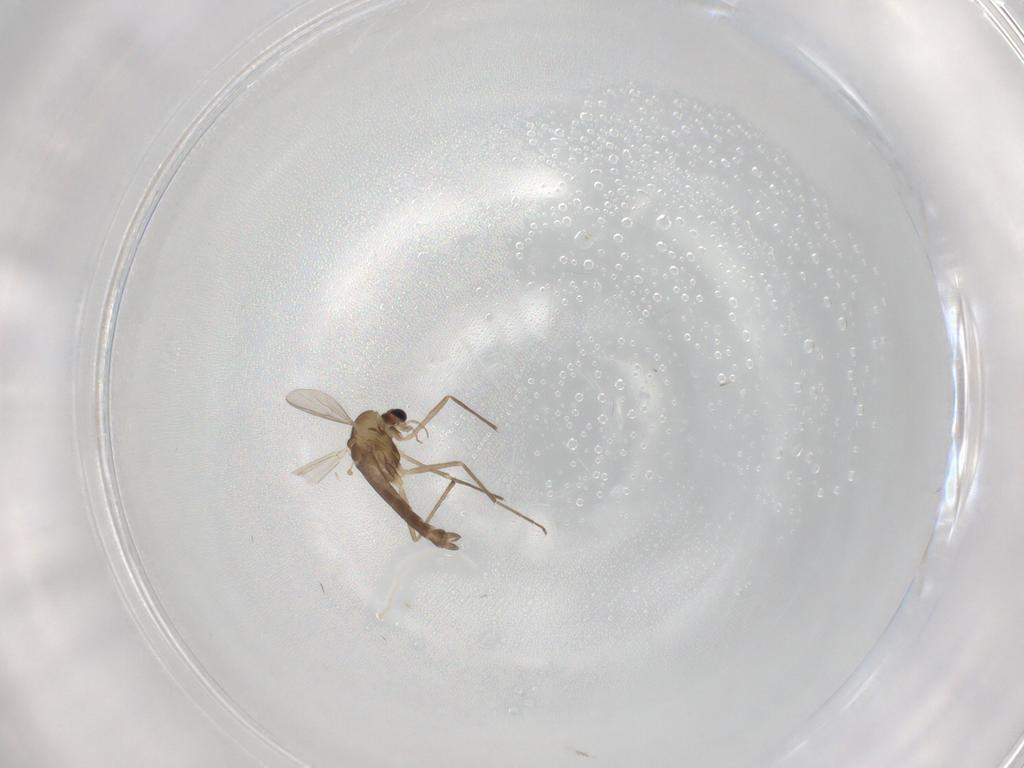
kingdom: Animalia
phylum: Arthropoda
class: Insecta
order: Diptera
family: Chironomidae
